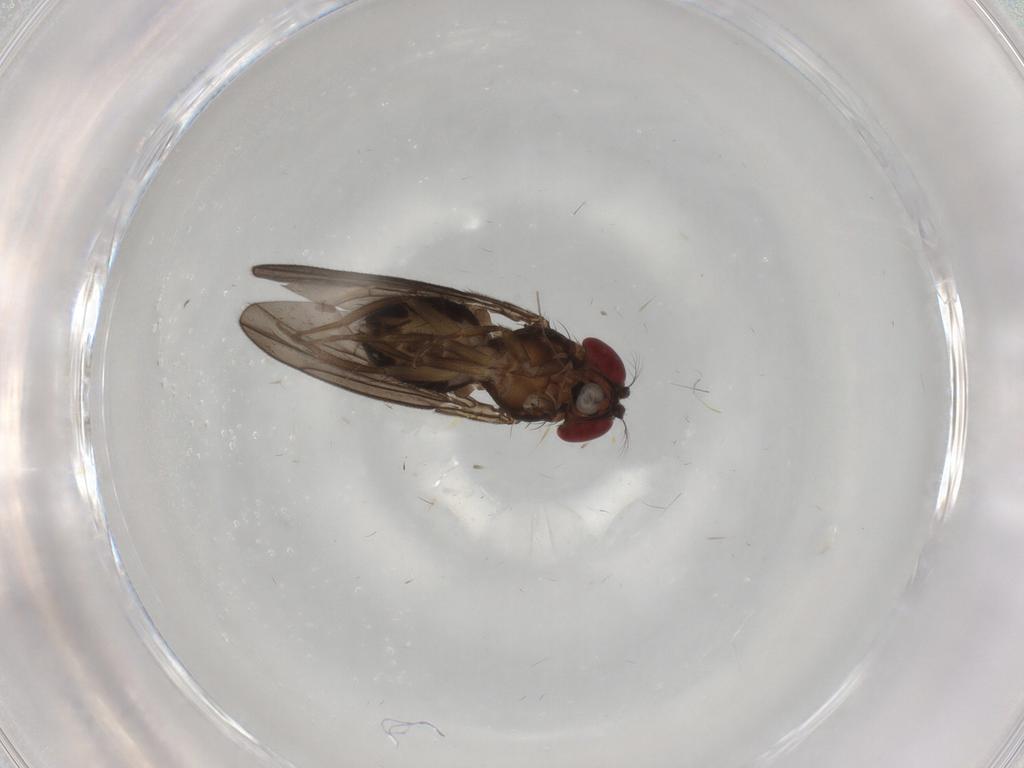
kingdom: Animalia
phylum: Arthropoda
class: Insecta
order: Diptera
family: Drosophilidae
